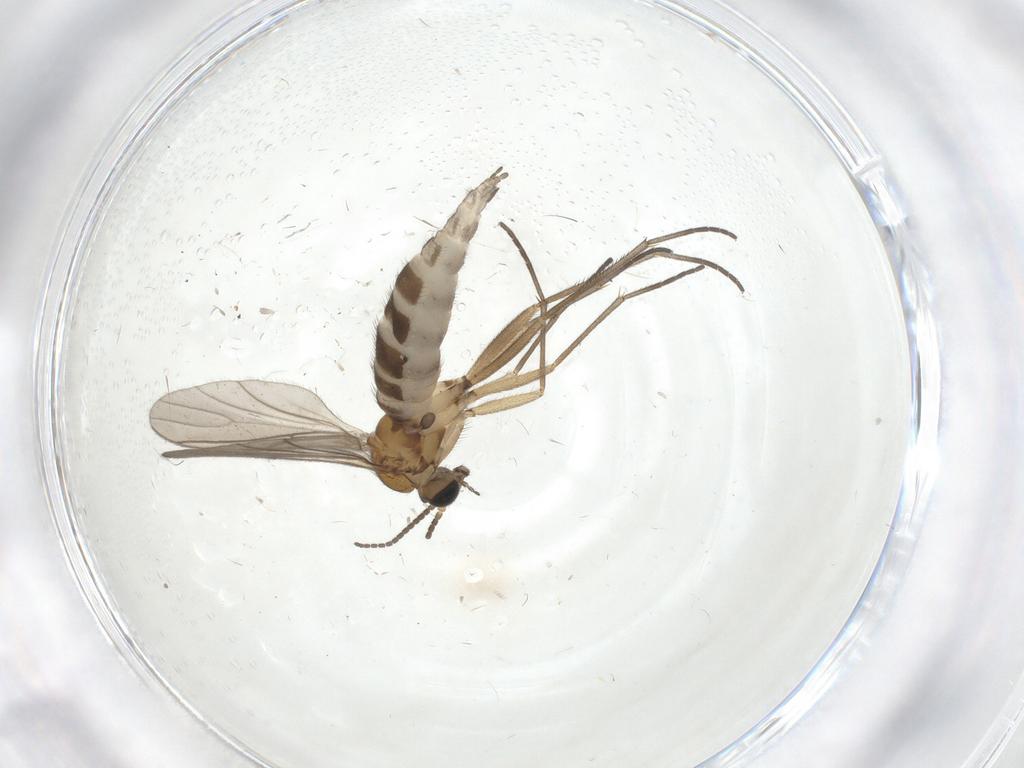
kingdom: Animalia
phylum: Arthropoda
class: Insecta
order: Diptera
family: Sciaridae
